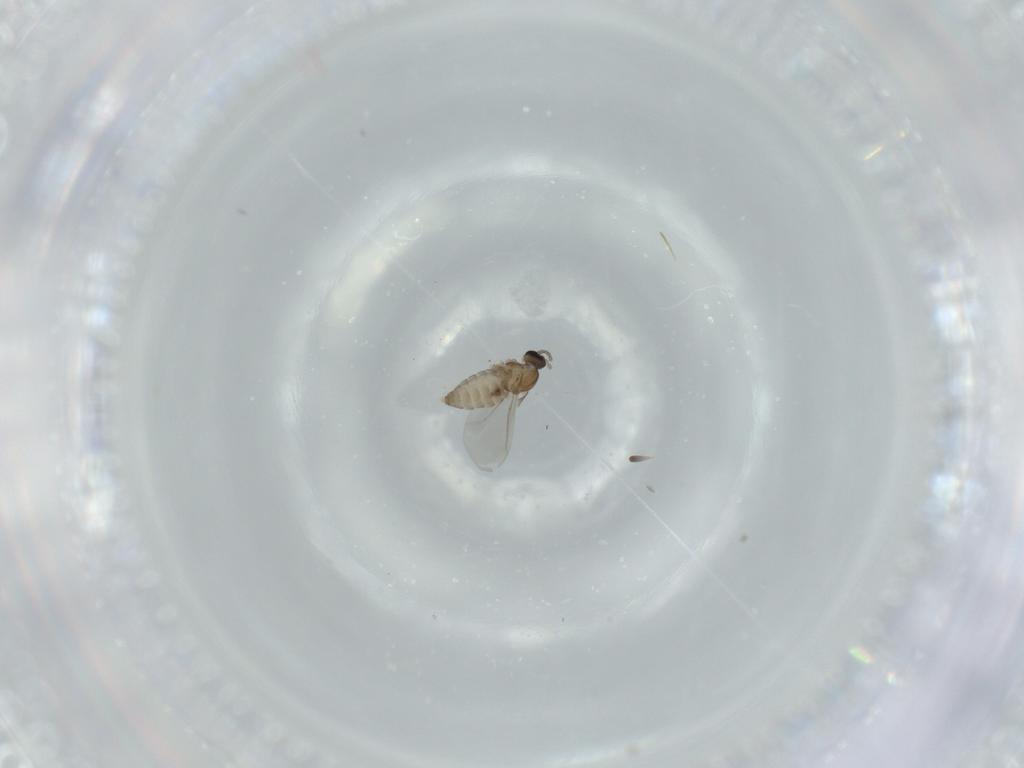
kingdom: Animalia
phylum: Arthropoda
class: Insecta
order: Diptera
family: Cecidomyiidae
